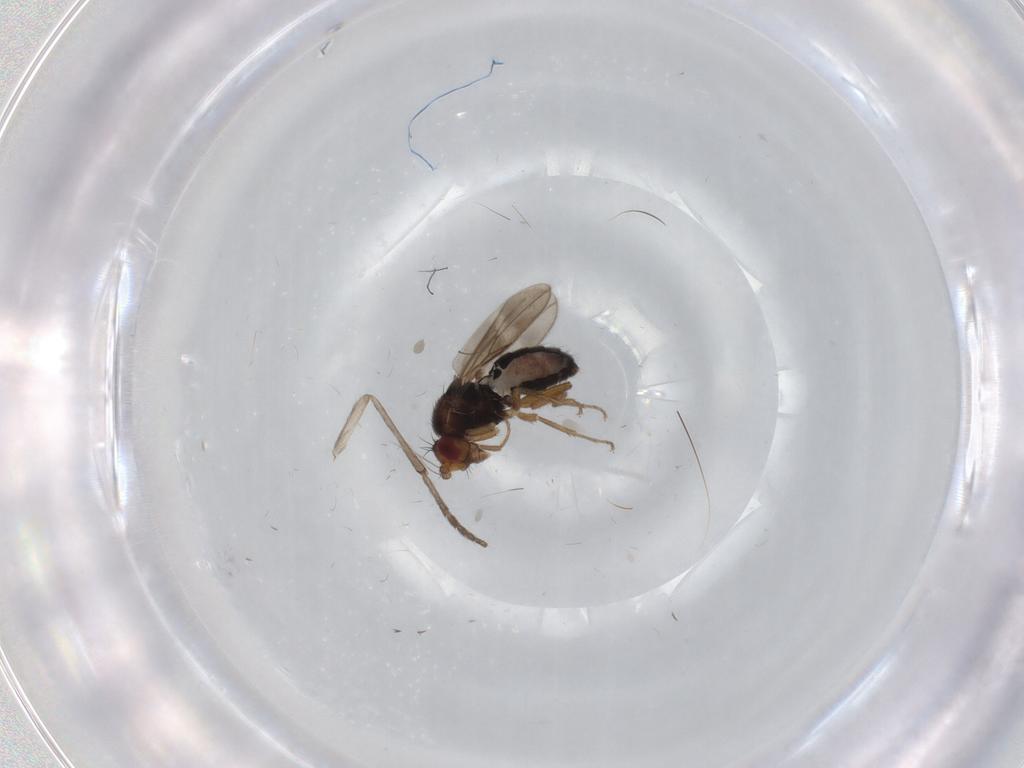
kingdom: Animalia
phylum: Arthropoda
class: Insecta
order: Diptera
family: Sphaeroceridae
